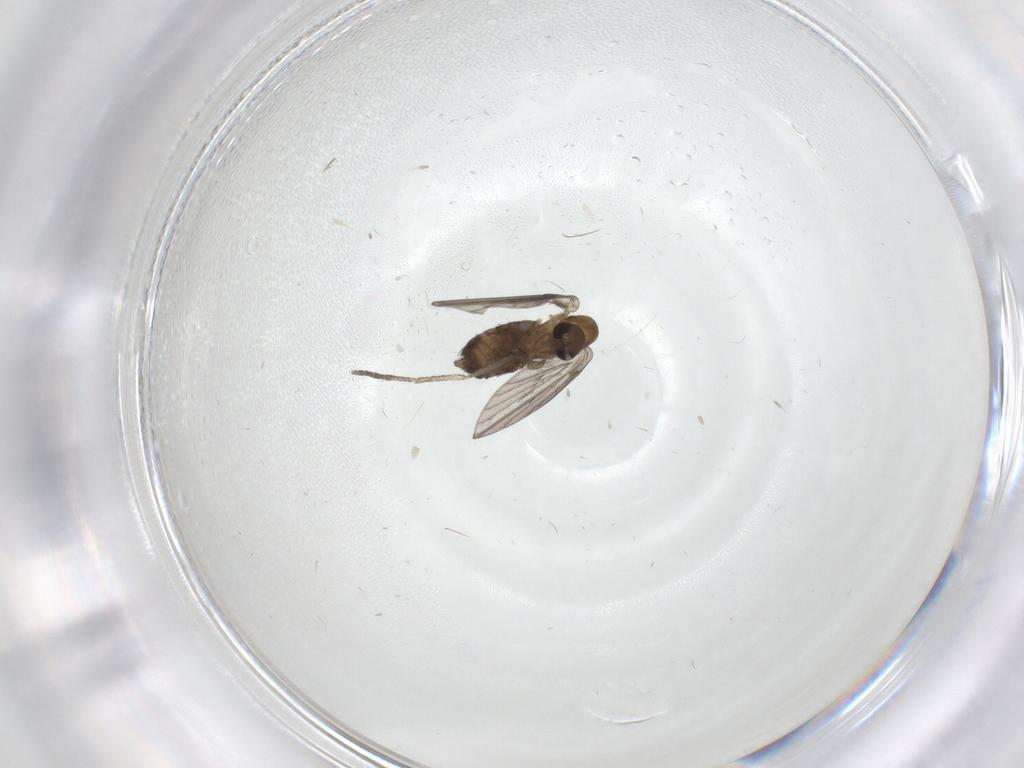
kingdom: Animalia
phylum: Arthropoda
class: Insecta
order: Diptera
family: Psychodidae
